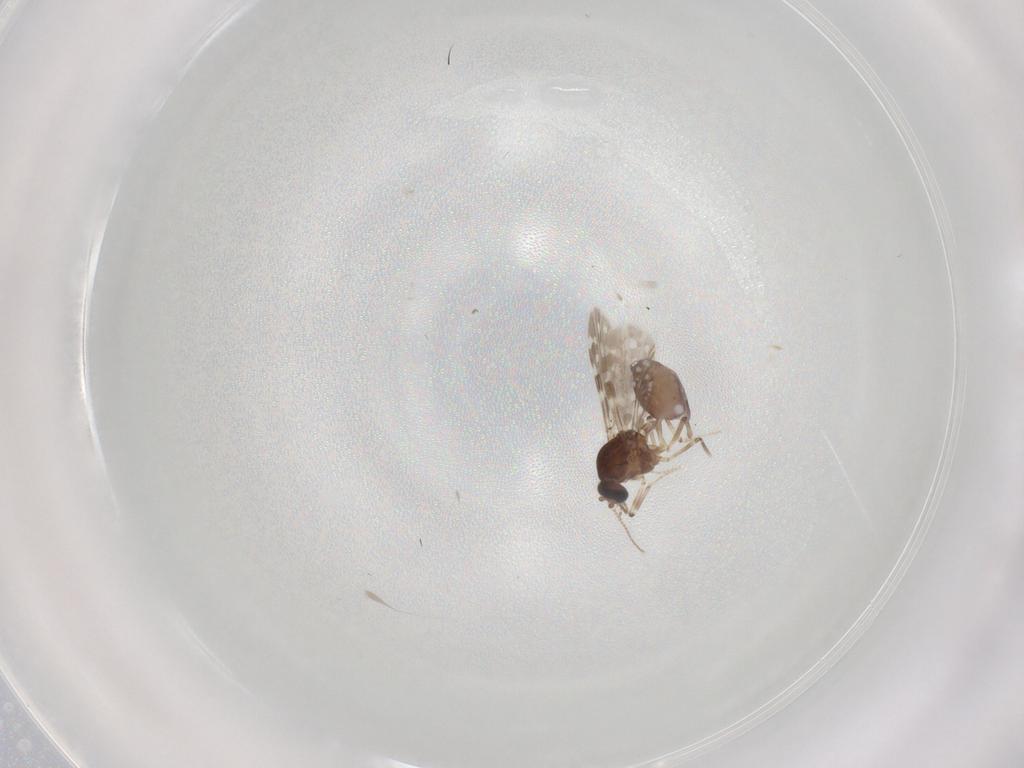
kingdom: Animalia
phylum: Arthropoda
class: Insecta
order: Diptera
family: Ceratopogonidae
